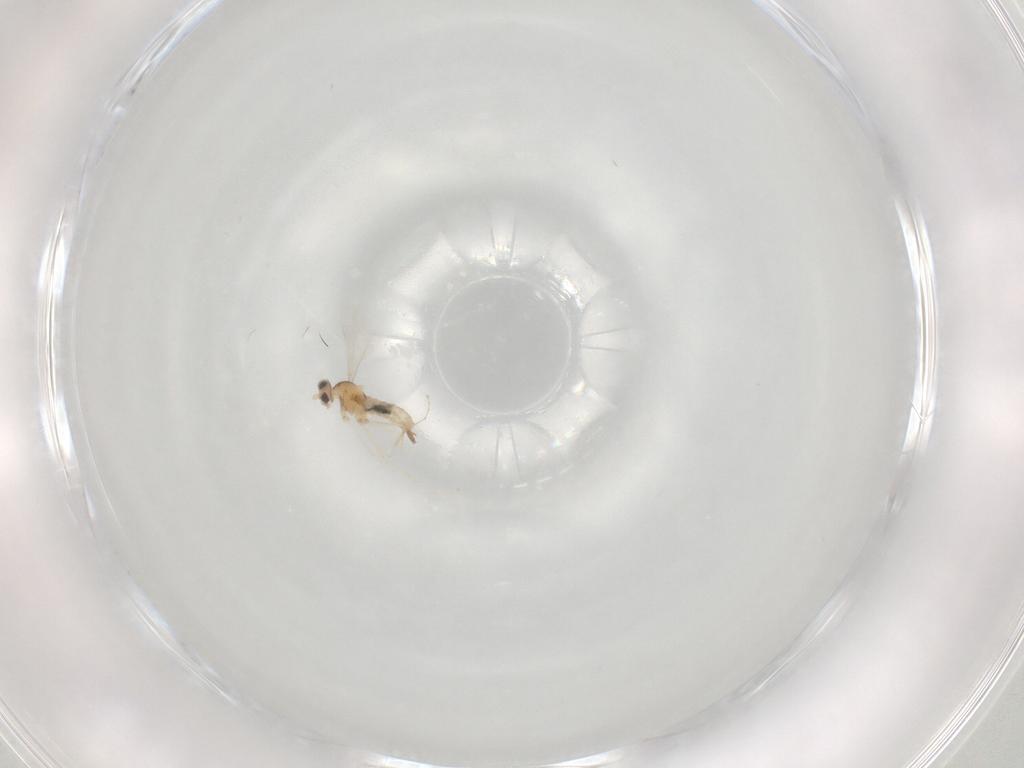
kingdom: Animalia
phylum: Arthropoda
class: Insecta
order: Diptera
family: Cecidomyiidae
